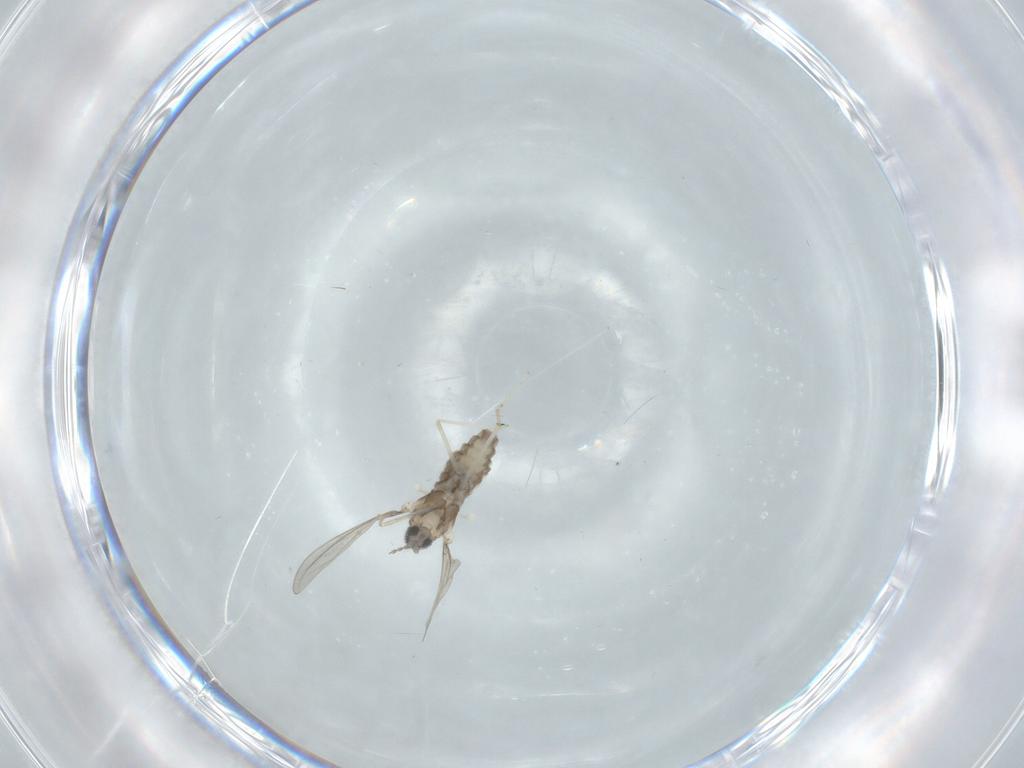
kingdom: Animalia
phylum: Arthropoda
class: Insecta
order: Diptera
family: Cecidomyiidae
